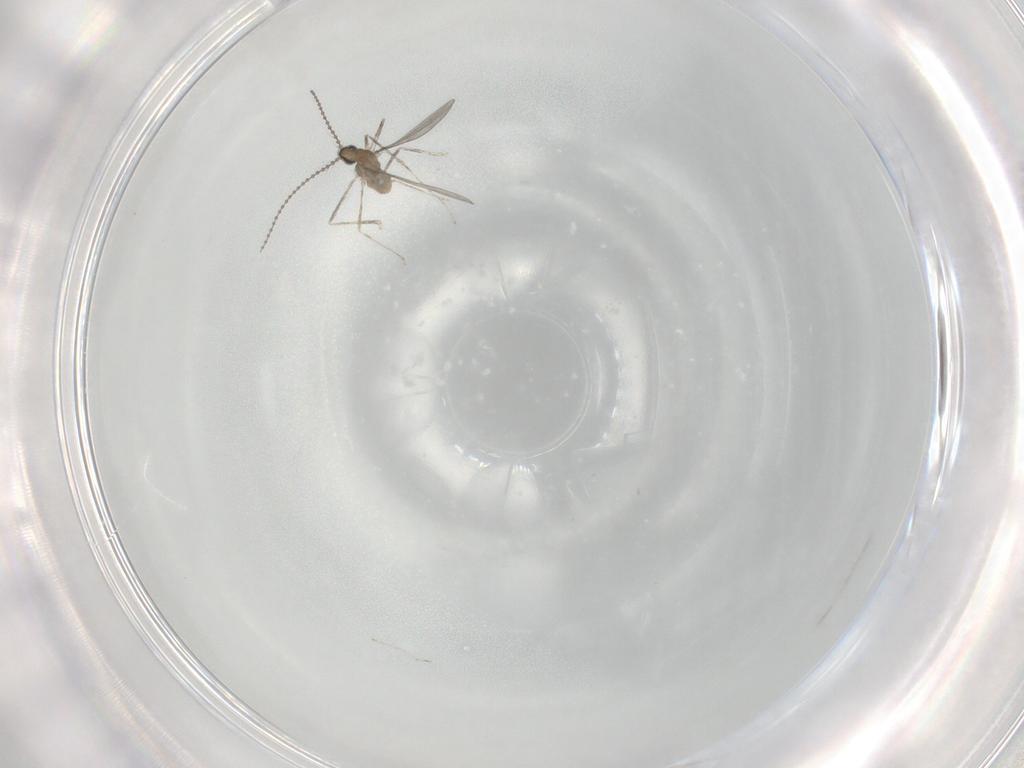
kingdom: Animalia
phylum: Arthropoda
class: Insecta
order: Diptera
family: Cecidomyiidae
